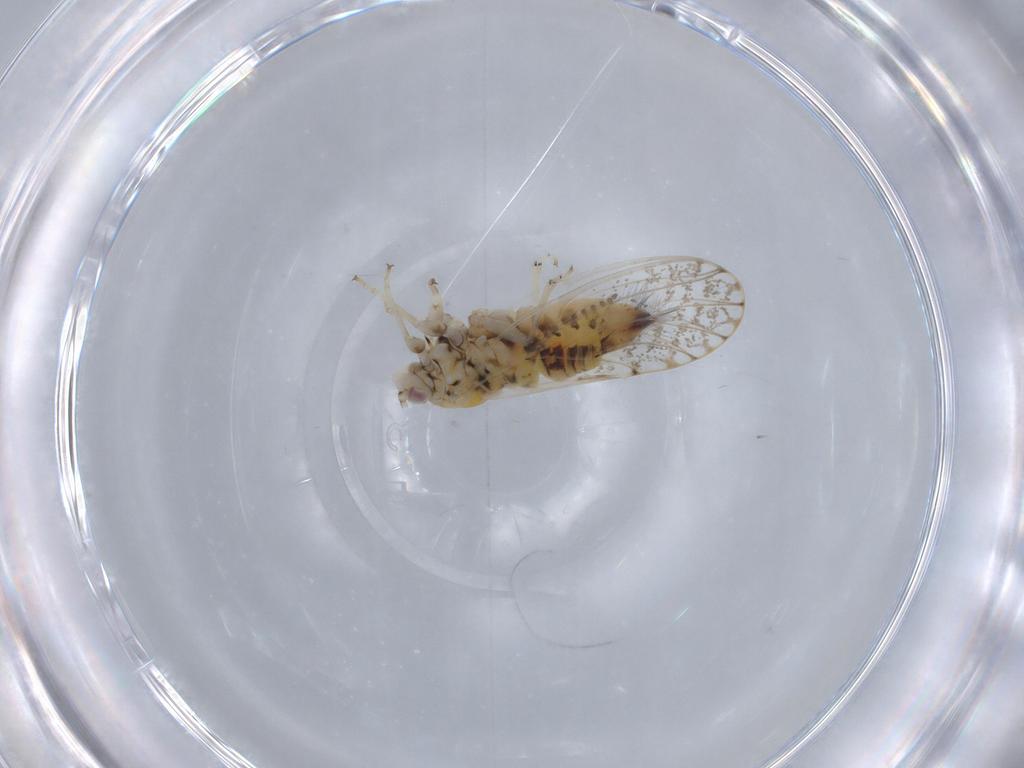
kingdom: Animalia
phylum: Arthropoda
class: Insecta
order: Hemiptera
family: Psyllidae
